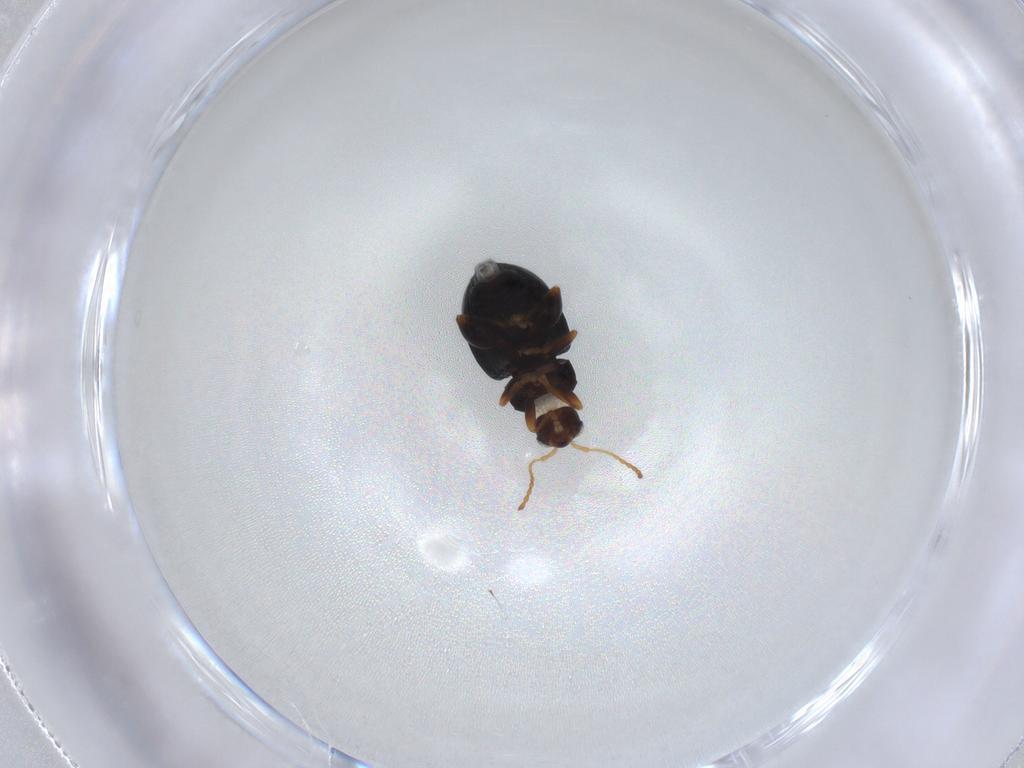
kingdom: Animalia
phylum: Arthropoda
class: Insecta
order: Coleoptera
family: Chrysomelidae
